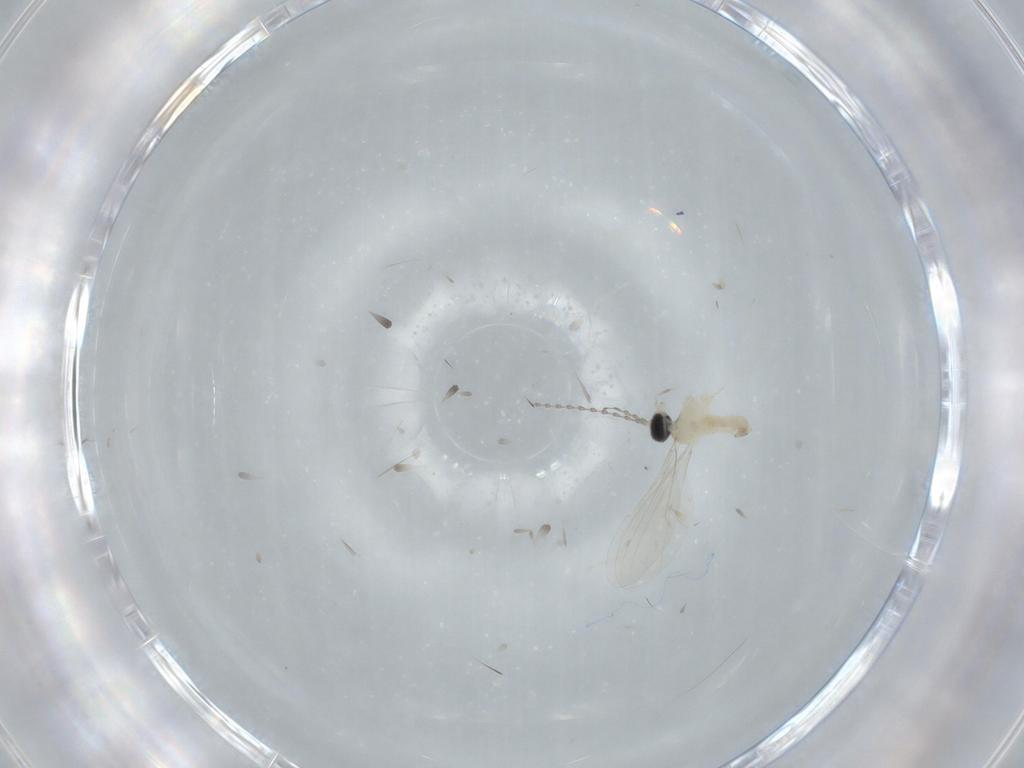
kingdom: Animalia
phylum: Arthropoda
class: Insecta
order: Diptera
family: Cecidomyiidae
